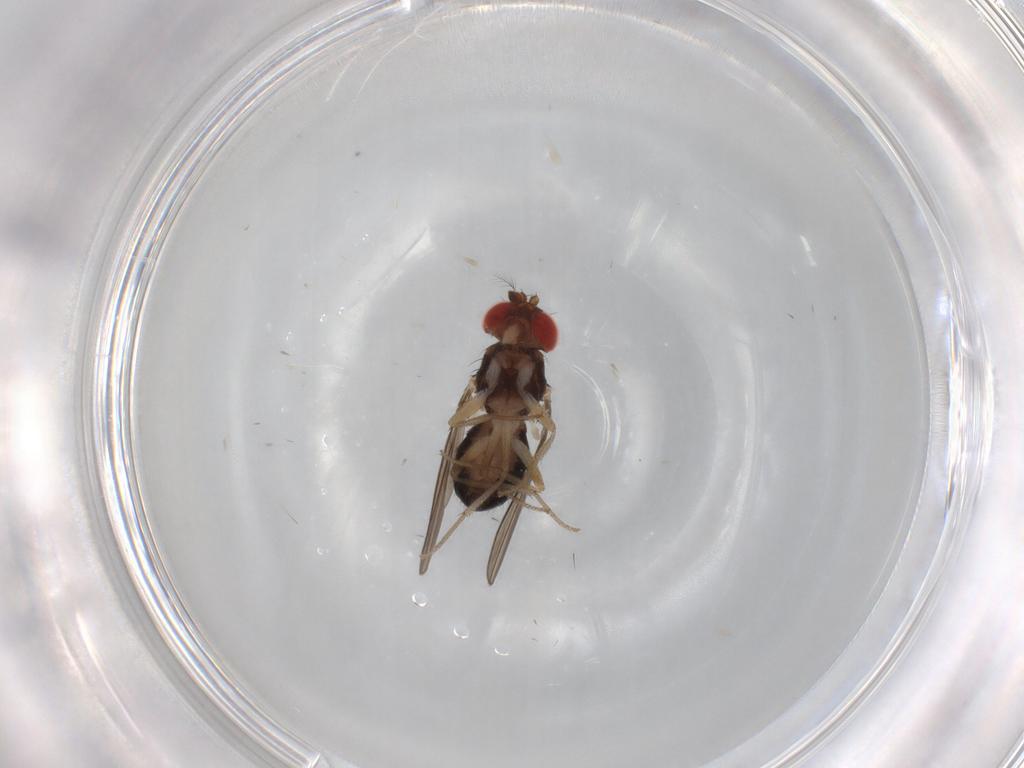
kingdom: Animalia
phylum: Arthropoda
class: Insecta
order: Diptera
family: Drosophilidae
